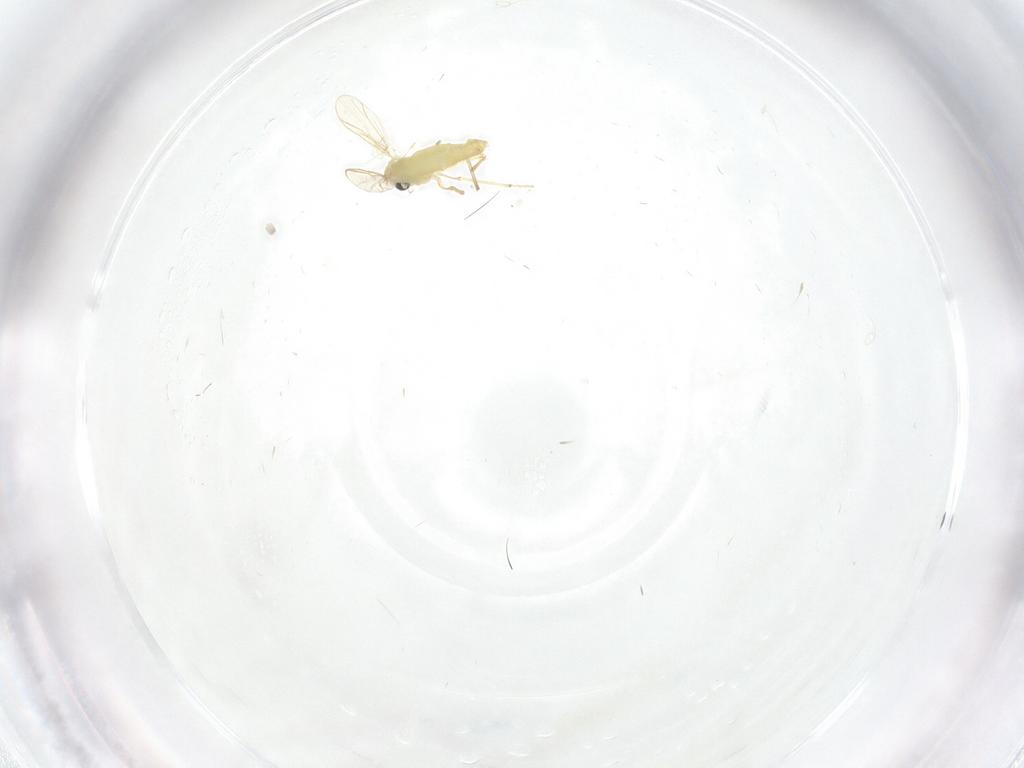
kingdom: Animalia
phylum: Arthropoda
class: Insecta
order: Diptera
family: Chironomidae
